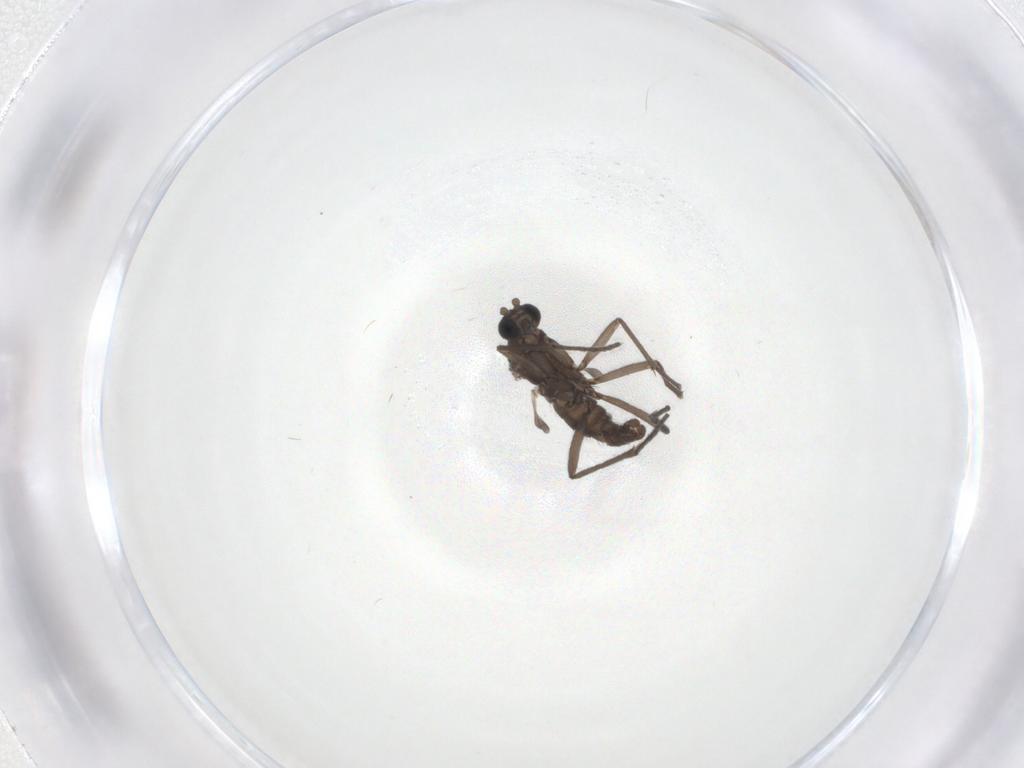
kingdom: Animalia
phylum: Arthropoda
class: Insecta
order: Diptera
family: Sciaridae
